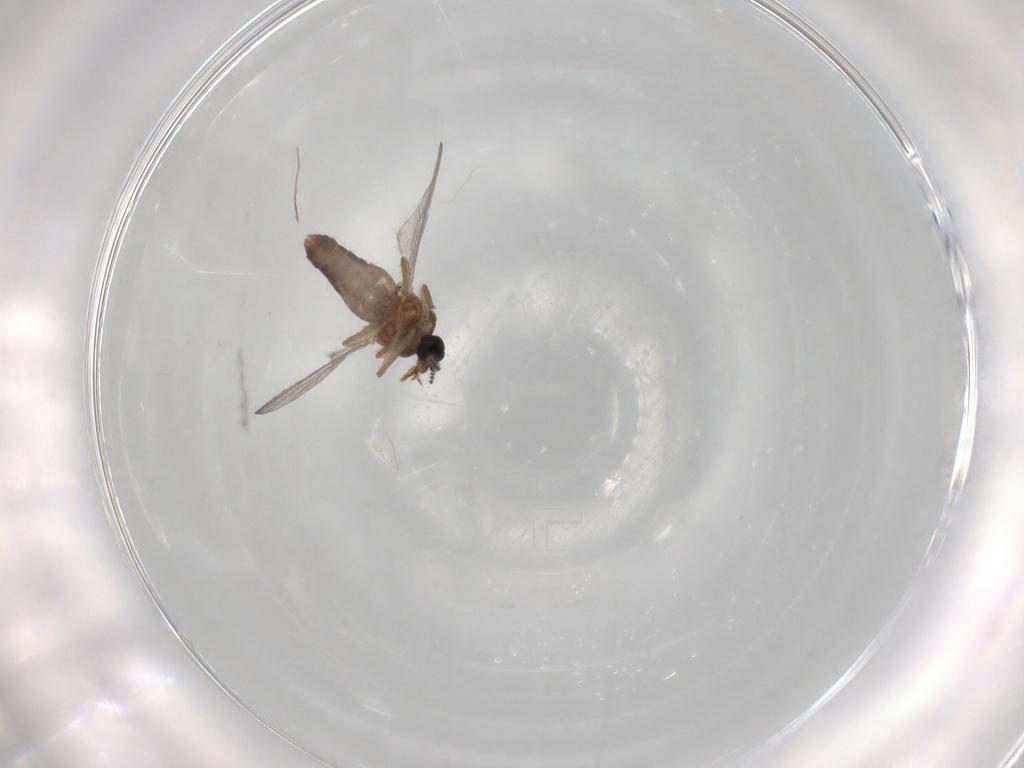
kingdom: Animalia
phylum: Arthropoda
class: Insecta
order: Diptera
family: Ceratopogonidae
